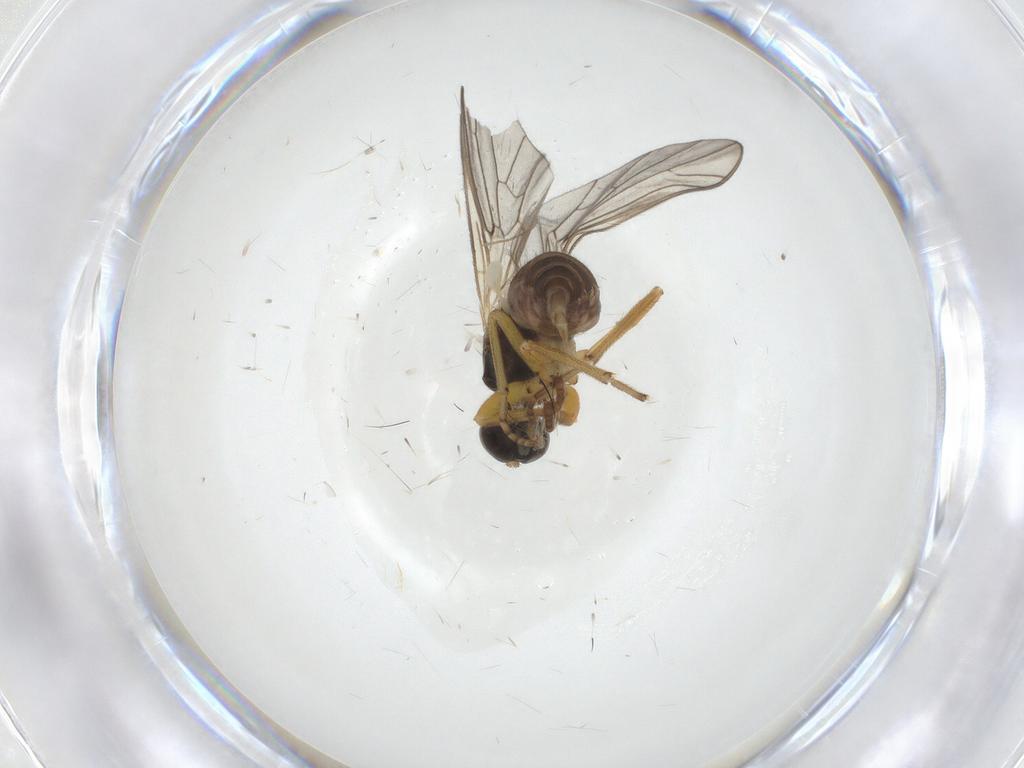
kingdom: Animalia
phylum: Arthropoda
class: Insecta
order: Diptera
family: Empididae
